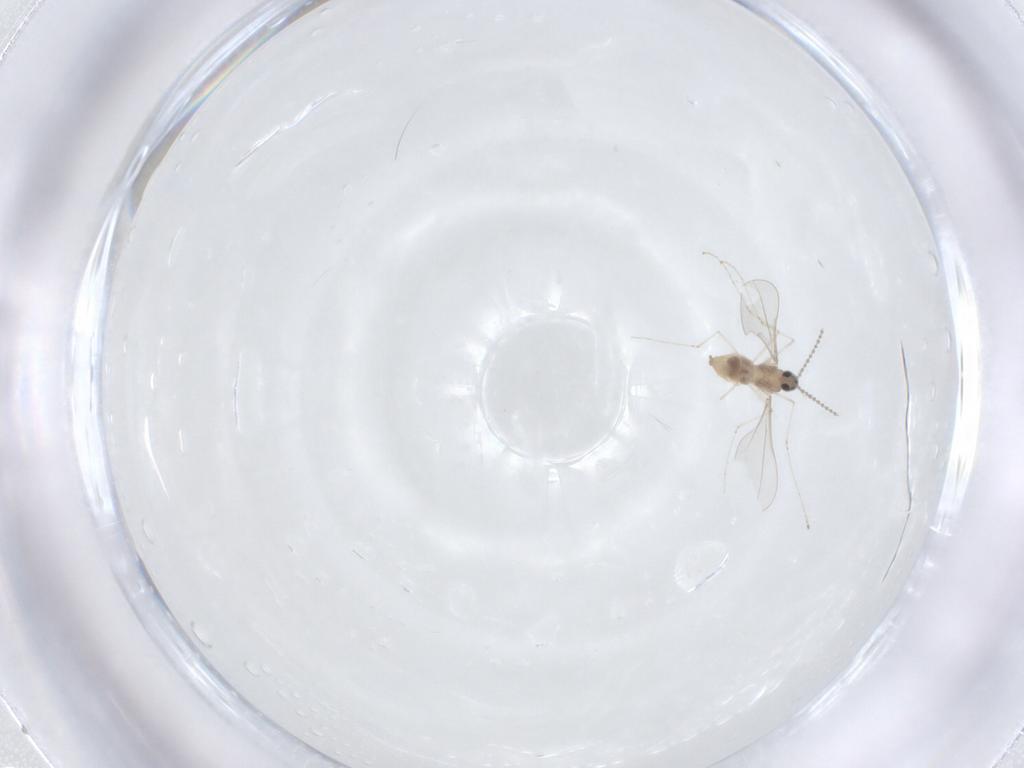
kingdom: Animalia
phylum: Arthropoda
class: Insecta
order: Diptera
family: Cecidomyiidae
